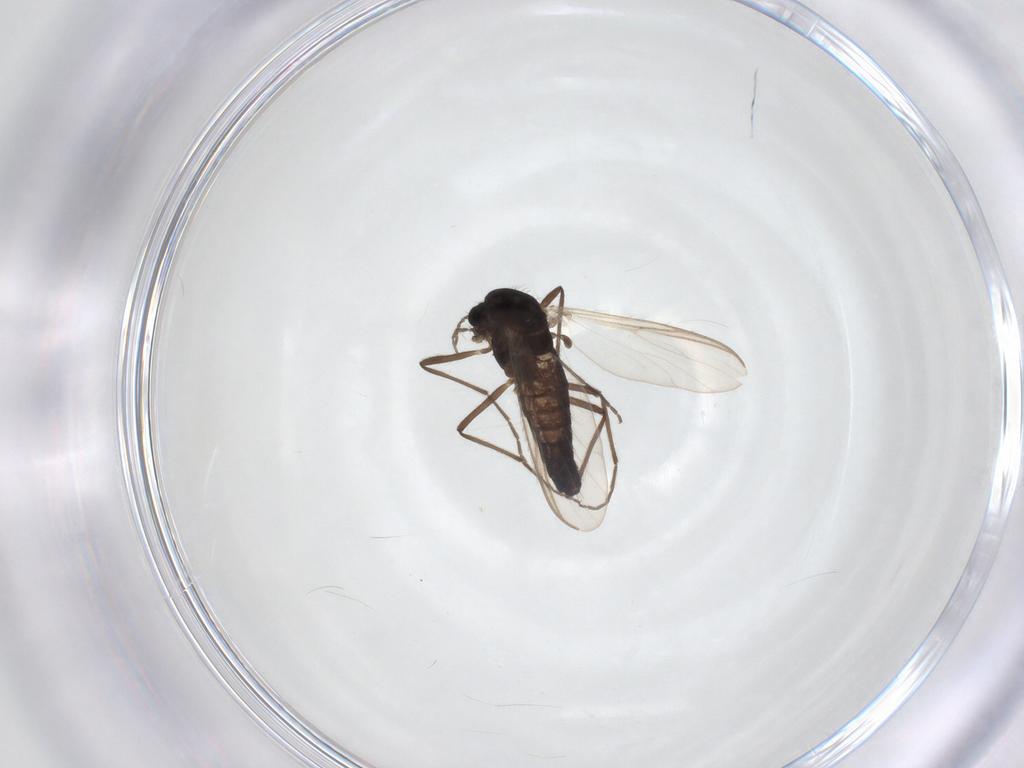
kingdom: Animalia
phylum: Arthropoda
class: Insecta
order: Diptera
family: Chironomidae
